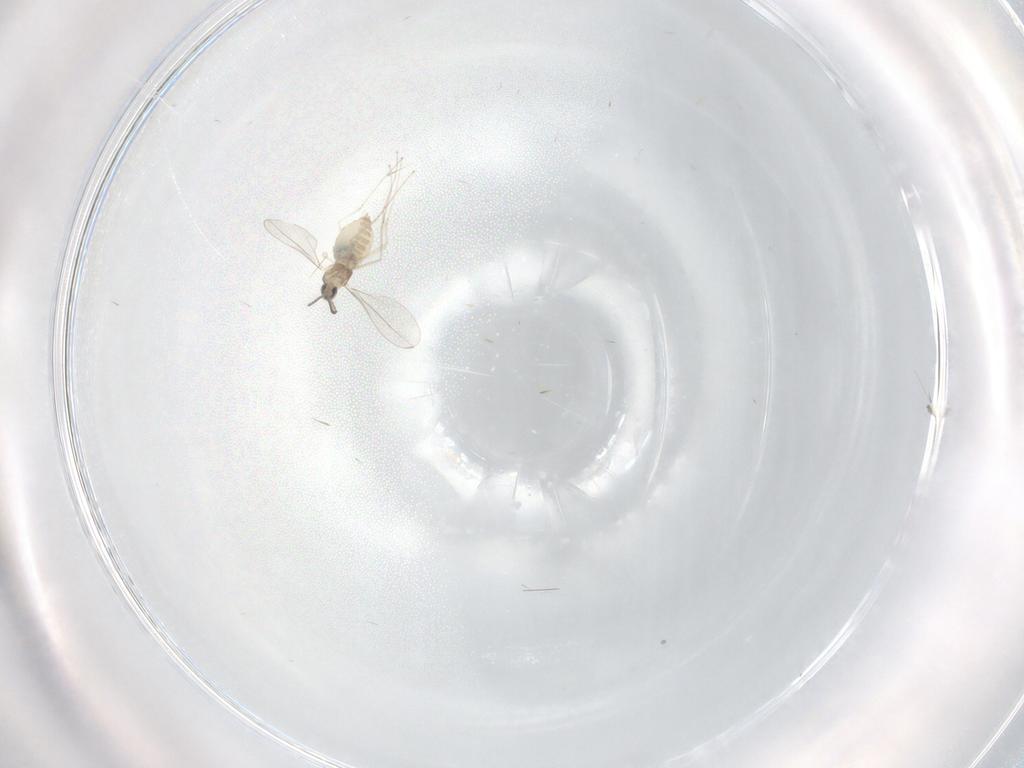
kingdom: Animalia
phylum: Arthropoda
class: Insecta
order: Diptera
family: Cecidomyiidae
